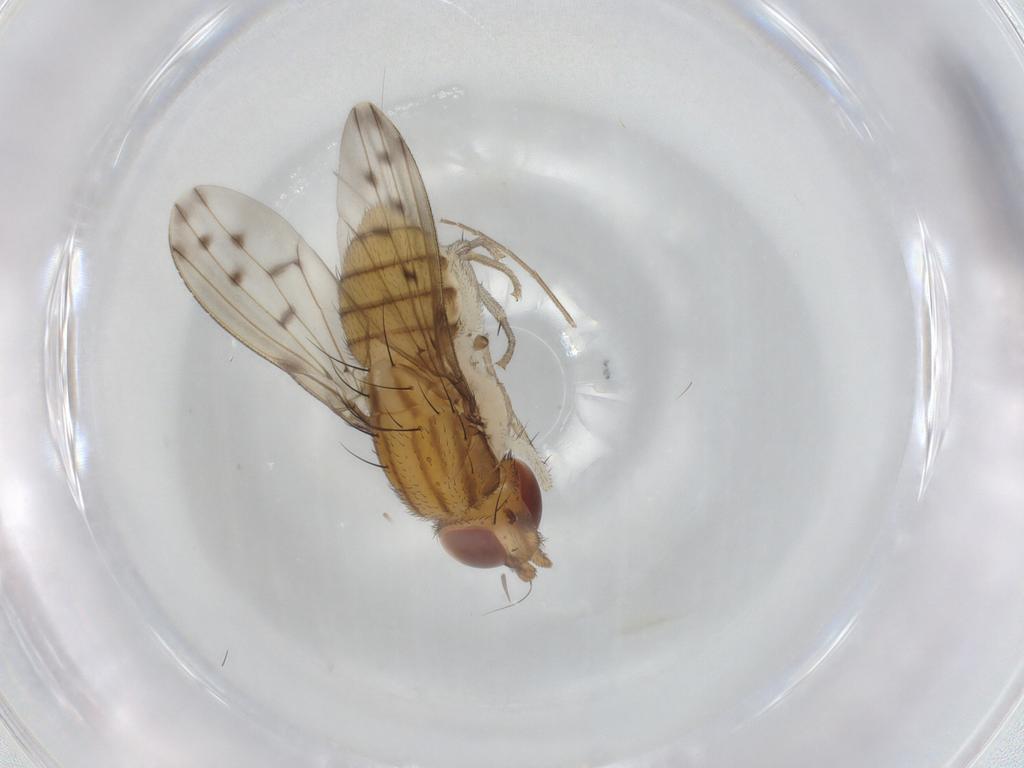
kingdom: Animalia
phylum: Arthropoda
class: Insecta
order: Diptera
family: Lauxaniidae
